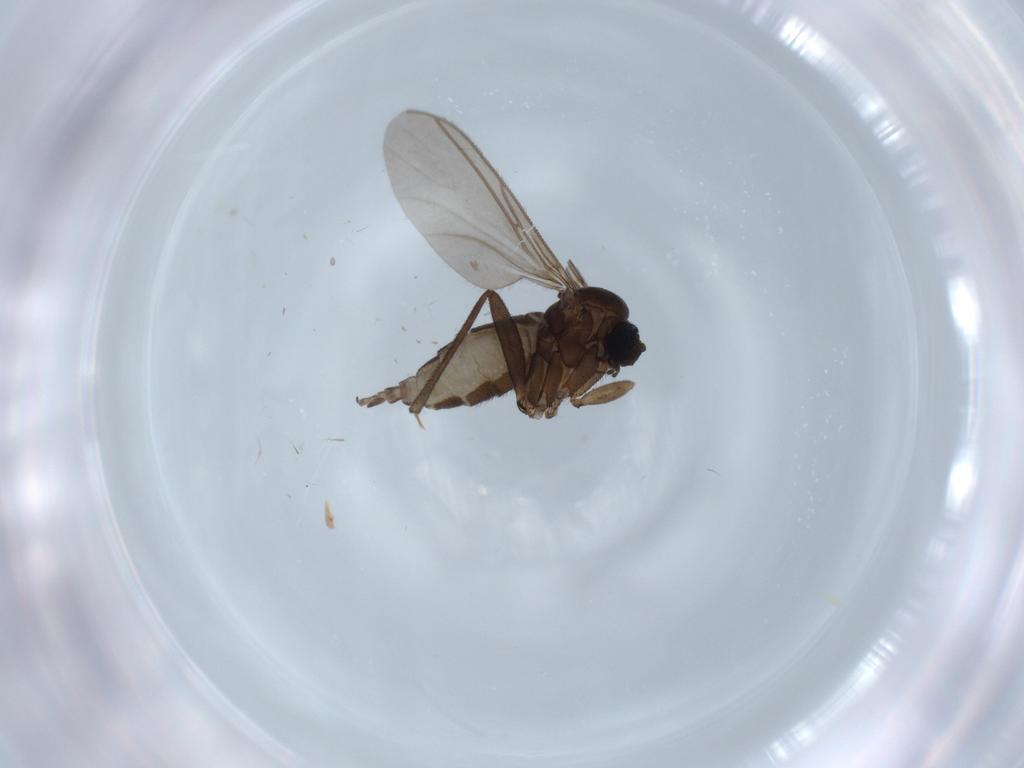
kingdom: Animalia
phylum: Arthropoda
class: Insecta
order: Diptera
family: Sciaridae
